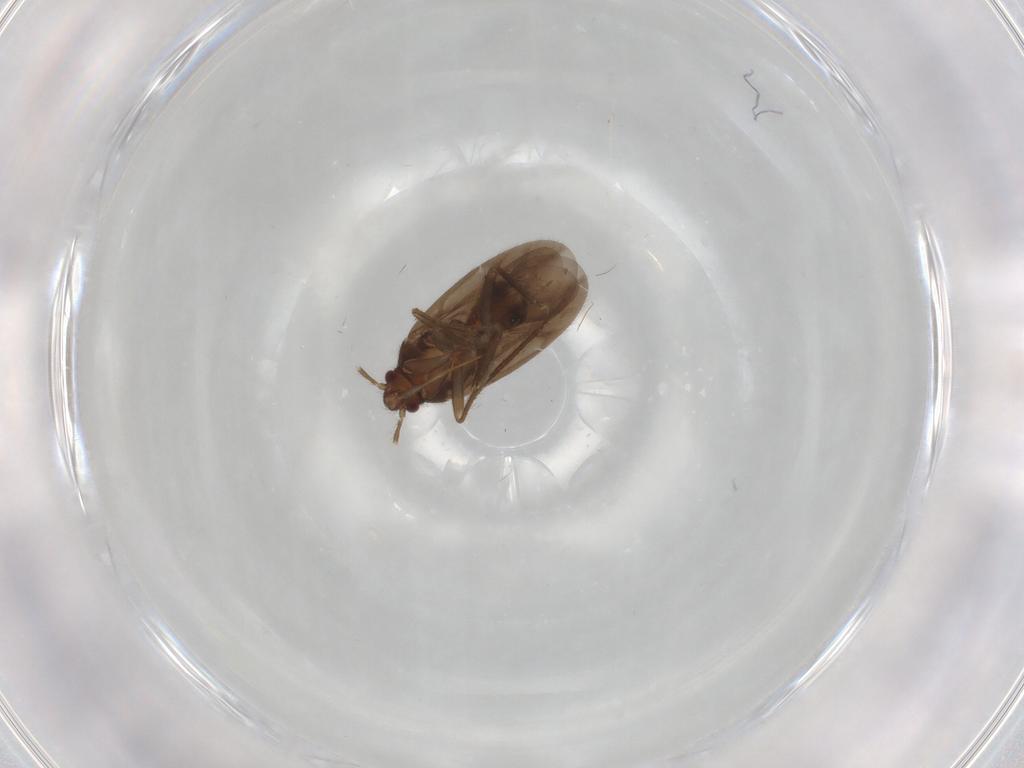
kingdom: Animalia
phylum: Arthropoda
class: Insecta
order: Hemiptera
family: Ceratocombidae
